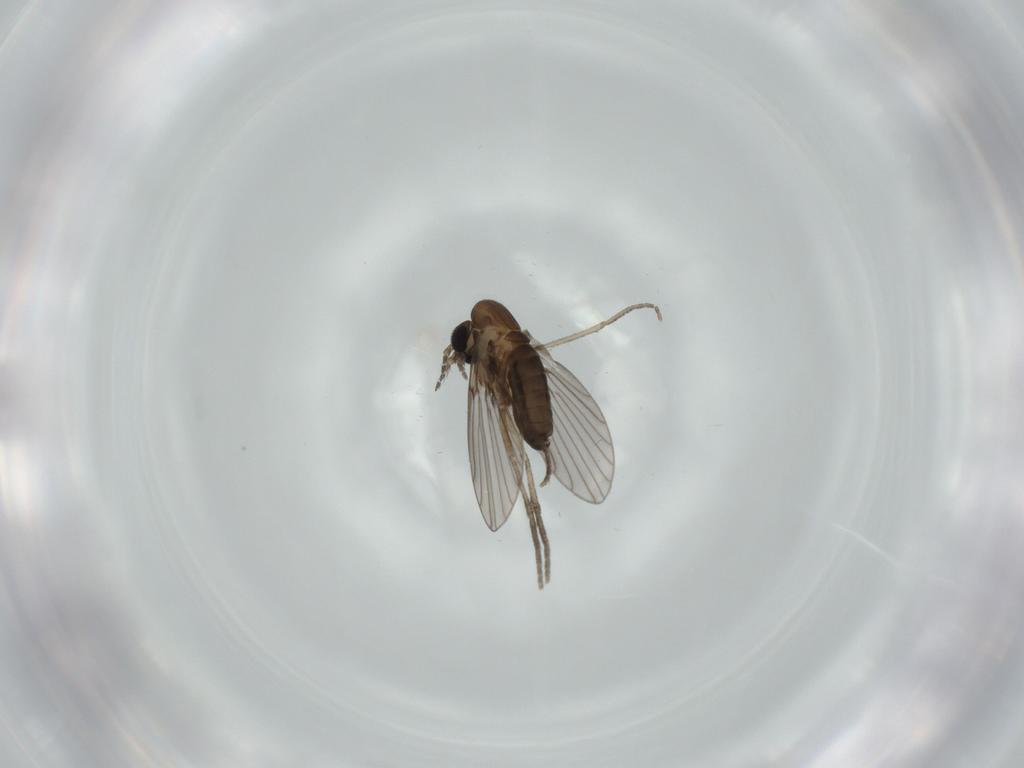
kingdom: Animalia
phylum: Arthropoda
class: Insecta
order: Diptera
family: Psychodidae
